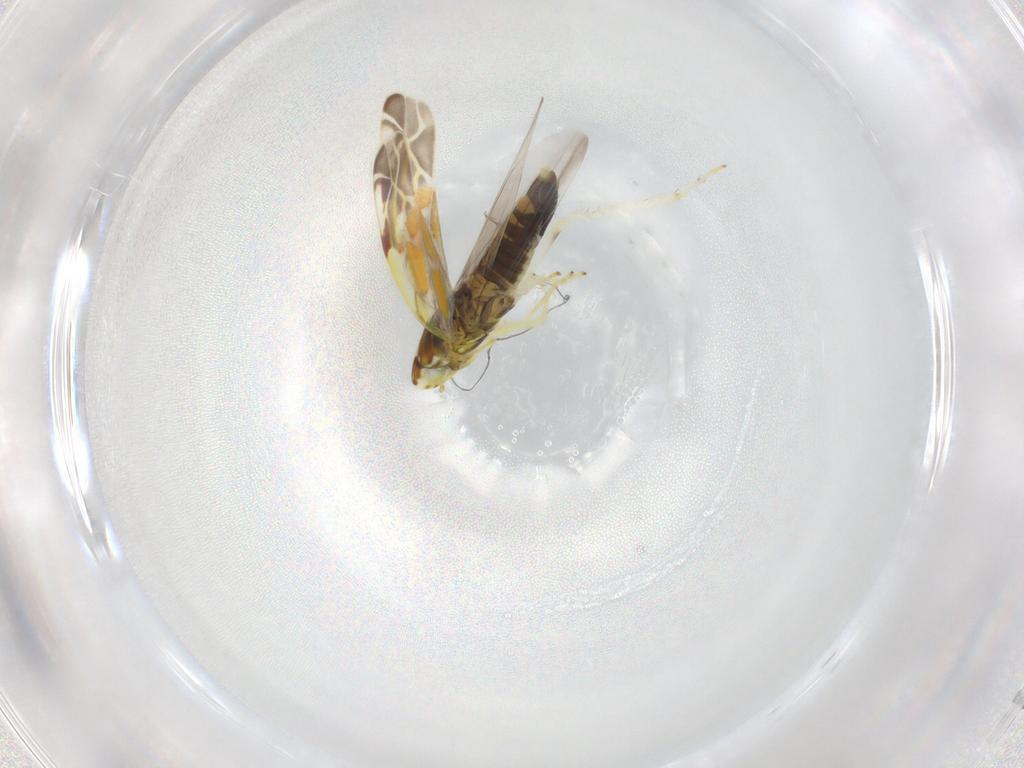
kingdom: Animalia
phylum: Arthropoda
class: Insecta
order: Hemiptera
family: Cicadellidae
